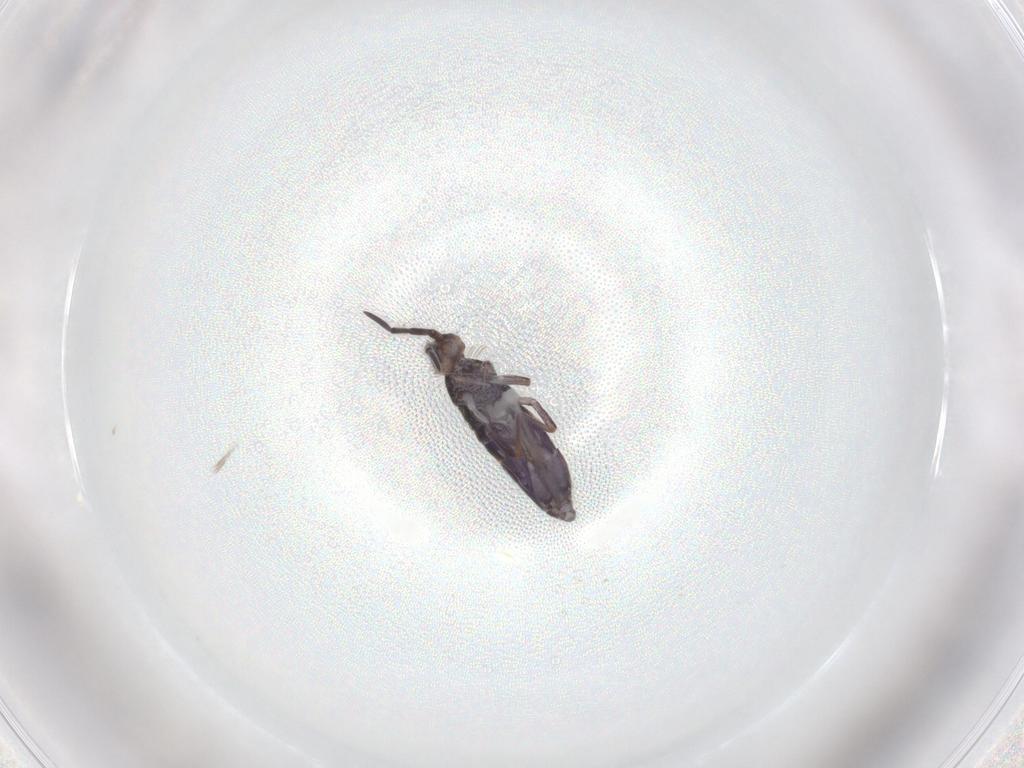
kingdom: Animalia
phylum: Arthropoda
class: Collembola
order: Entomobryomorpha
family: Entomobryidae
